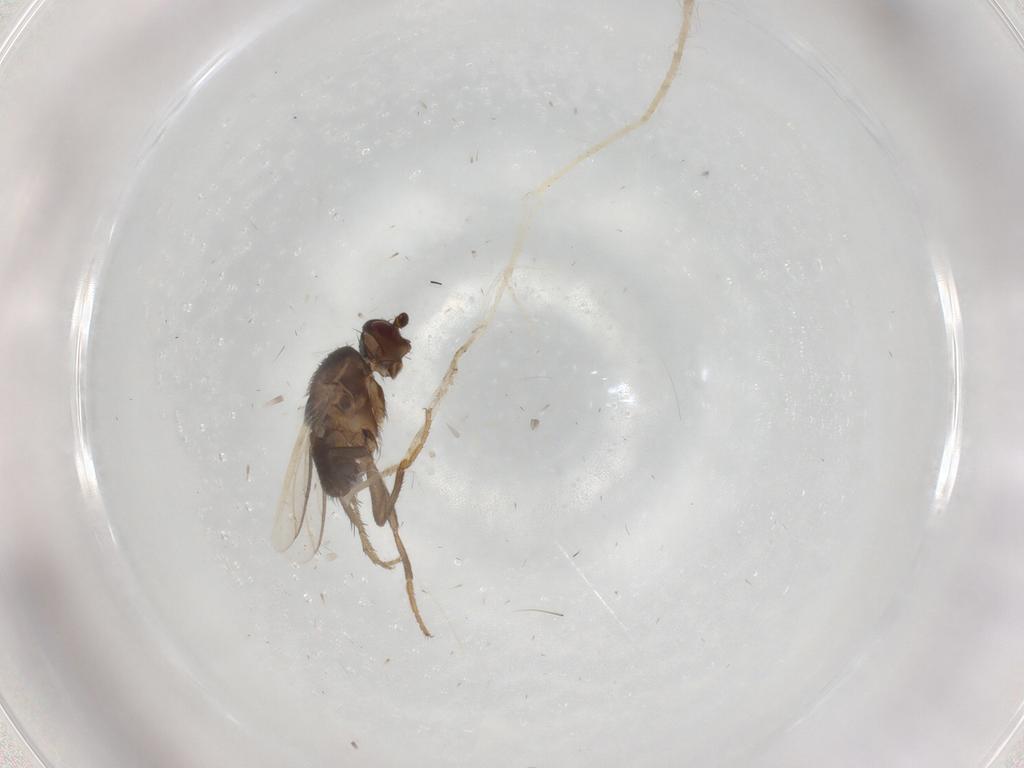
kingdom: Animalia
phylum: Arthropoda
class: Insecta
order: Diptera
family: Sphaeroceridae
